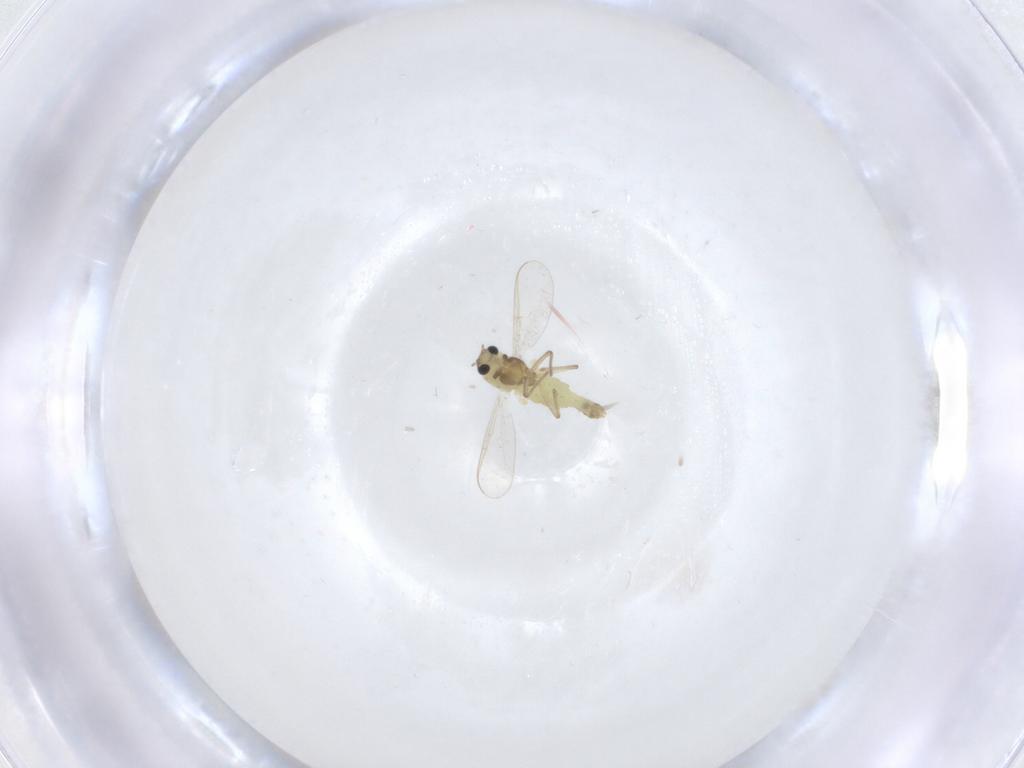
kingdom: Animalia
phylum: Arthropoda
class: Insecta
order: Diptera
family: Chironomidae
